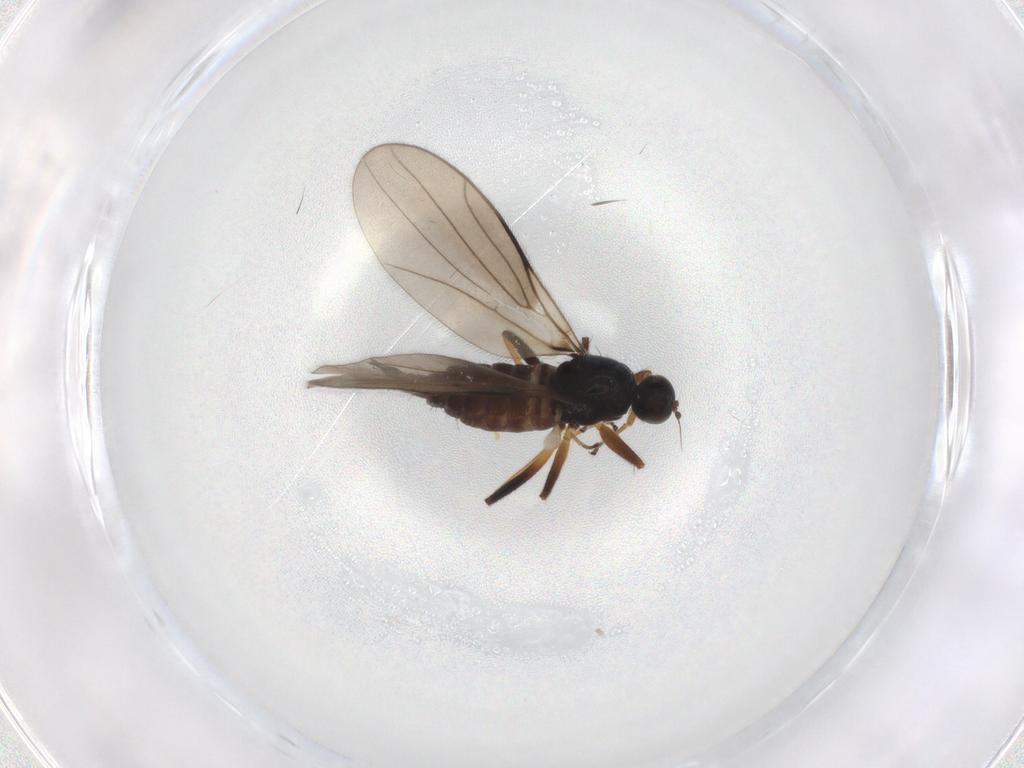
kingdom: Animalia
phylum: Arthropoda
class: Insecta
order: Diptera
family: Hybotidae
